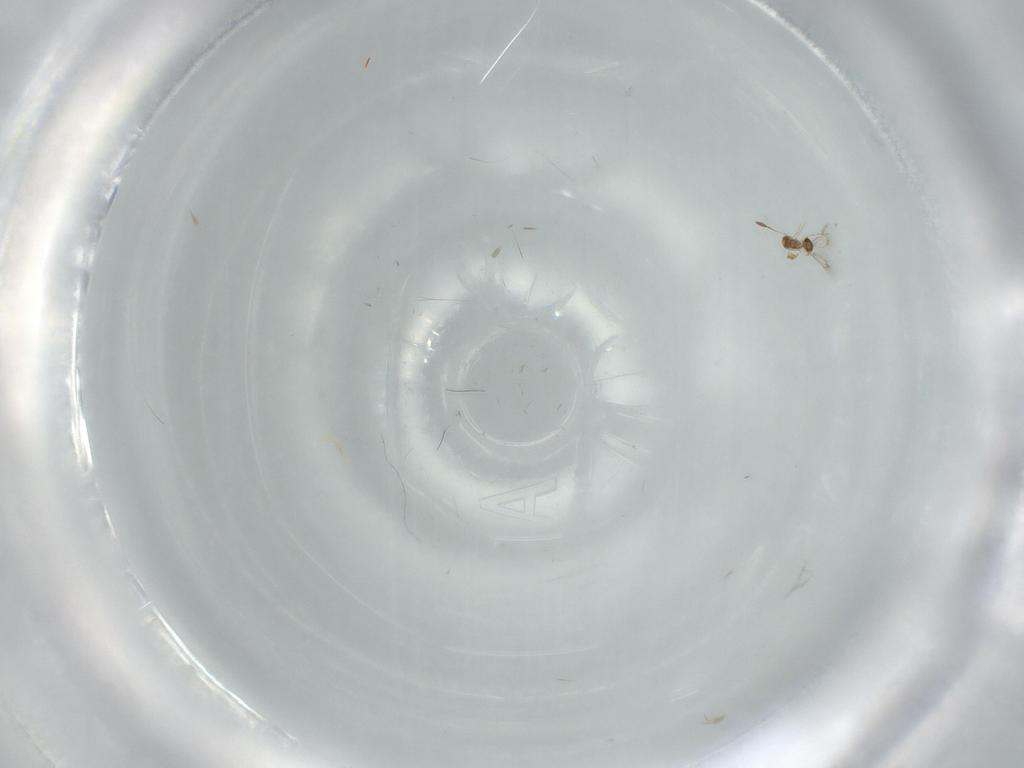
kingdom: Animalia
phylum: Arthropoda
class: Insecta
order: Hymenoptera
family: Mymarommatidae
